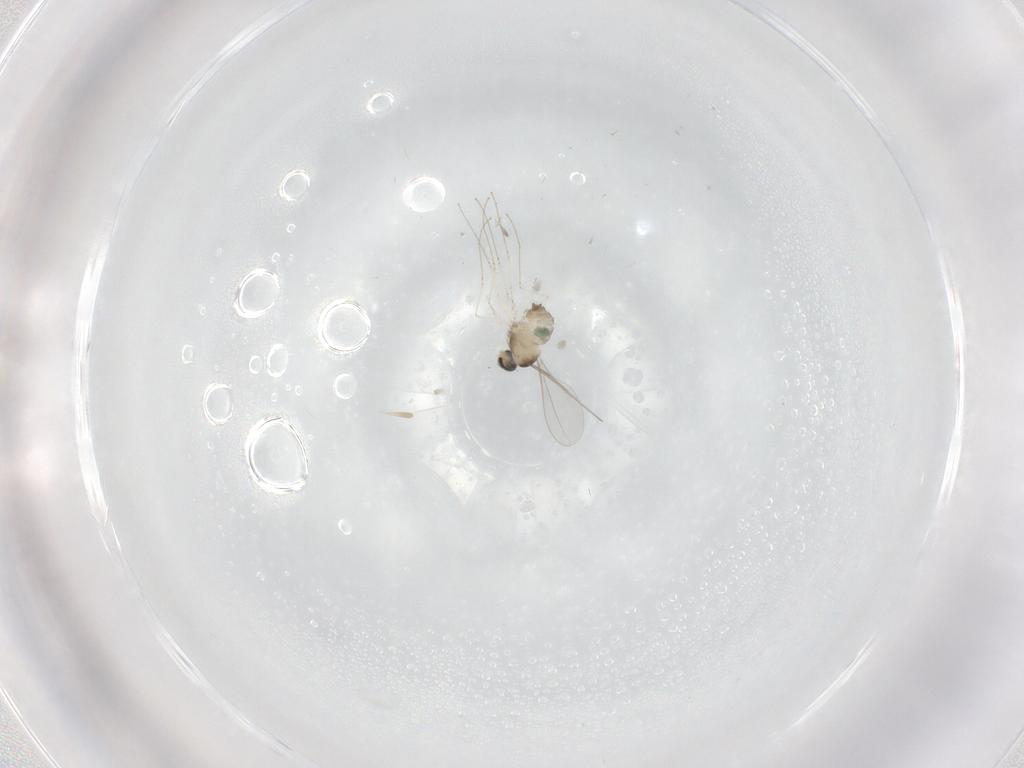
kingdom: Animalia
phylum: Arthropoda
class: Insecta
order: Diptera
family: Cecidomyiidae
